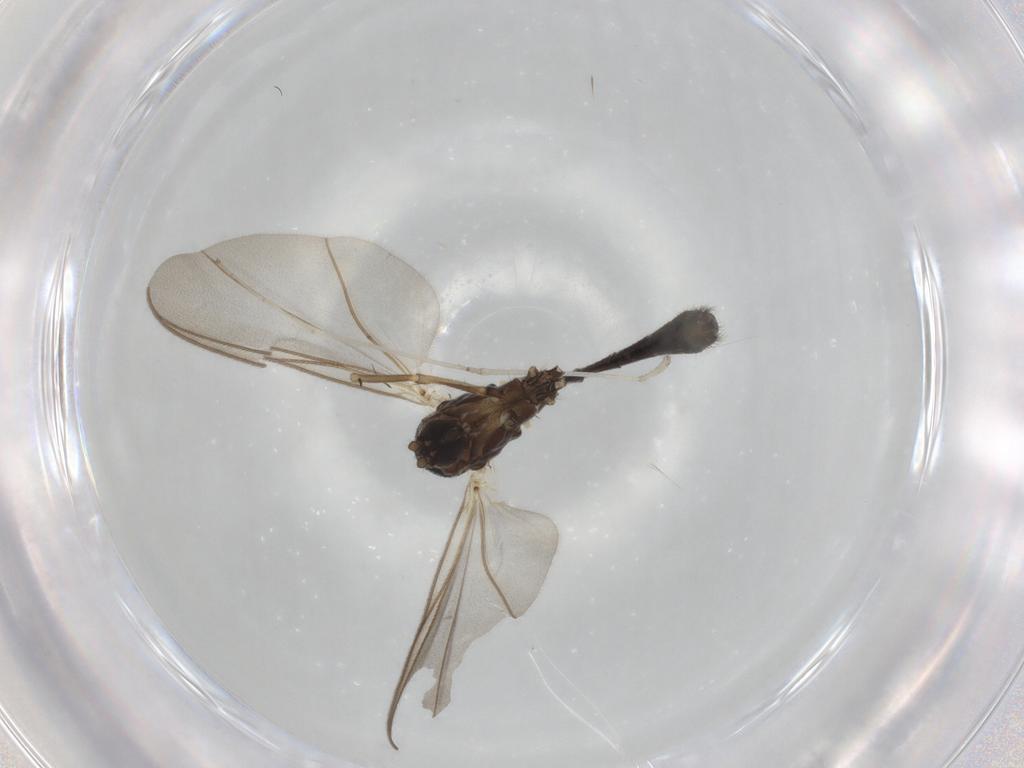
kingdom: Animalia
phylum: Arthropoda
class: Insecta
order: Diptera
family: Mycetophilidae
